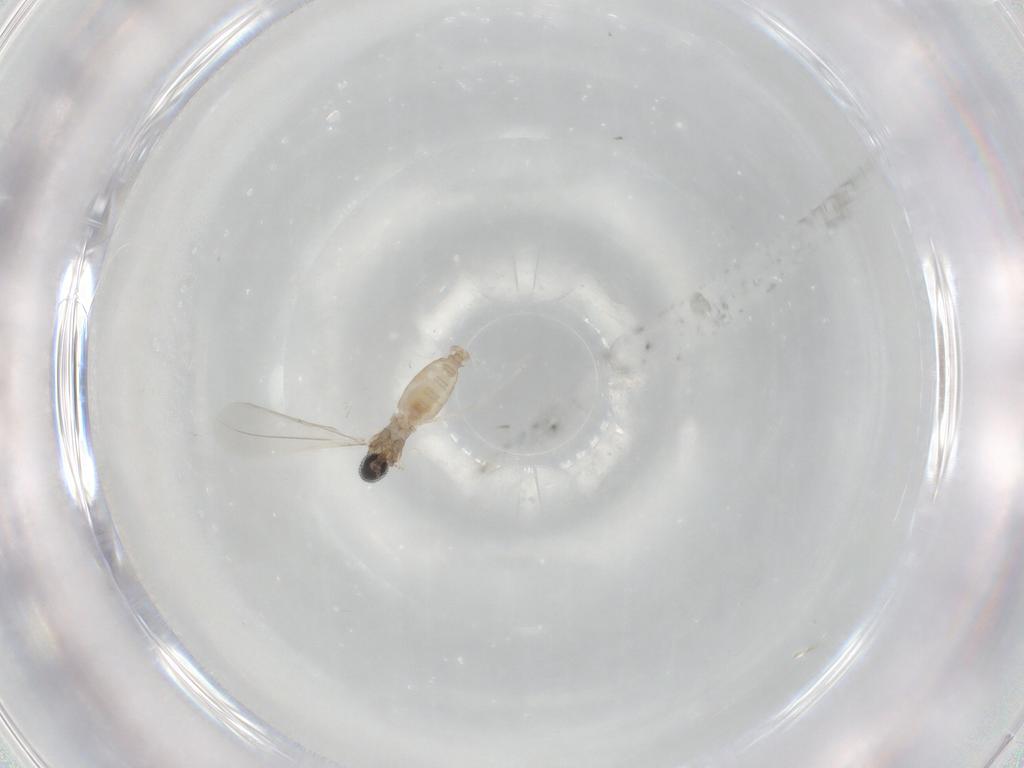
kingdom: Animalia
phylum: Arthropoda
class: Insecta
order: Diptera
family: Cecidomyiidae
